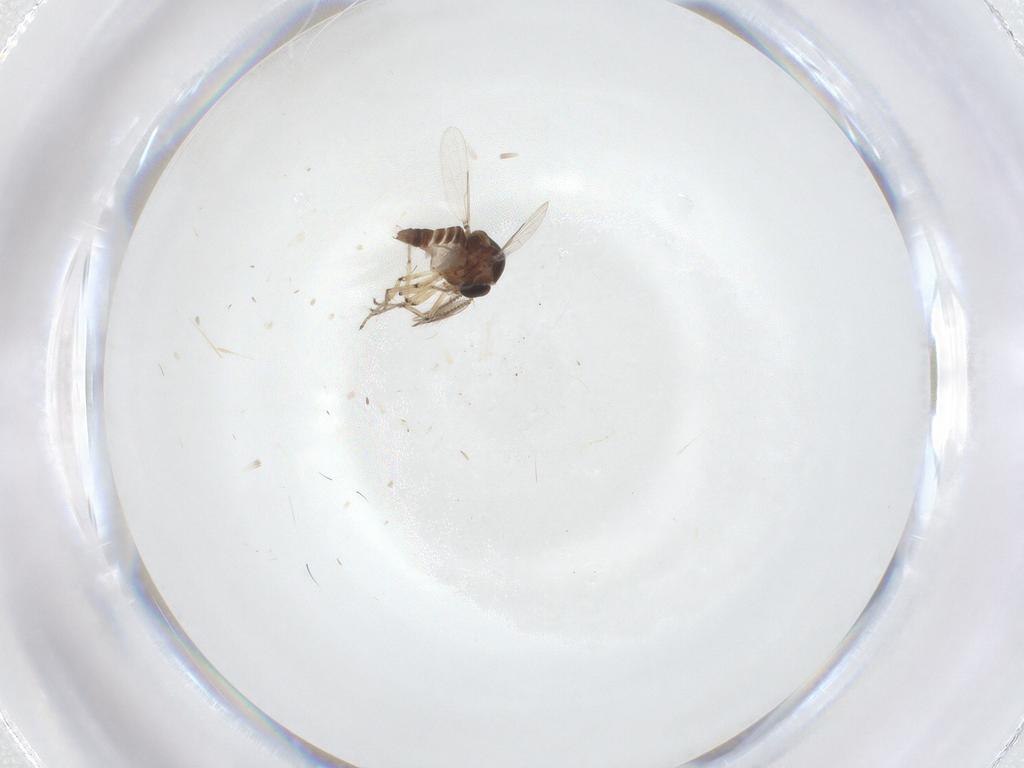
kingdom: Animalia
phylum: Arthropoda
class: Insecta
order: Diptera
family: Ceratopogonidae
